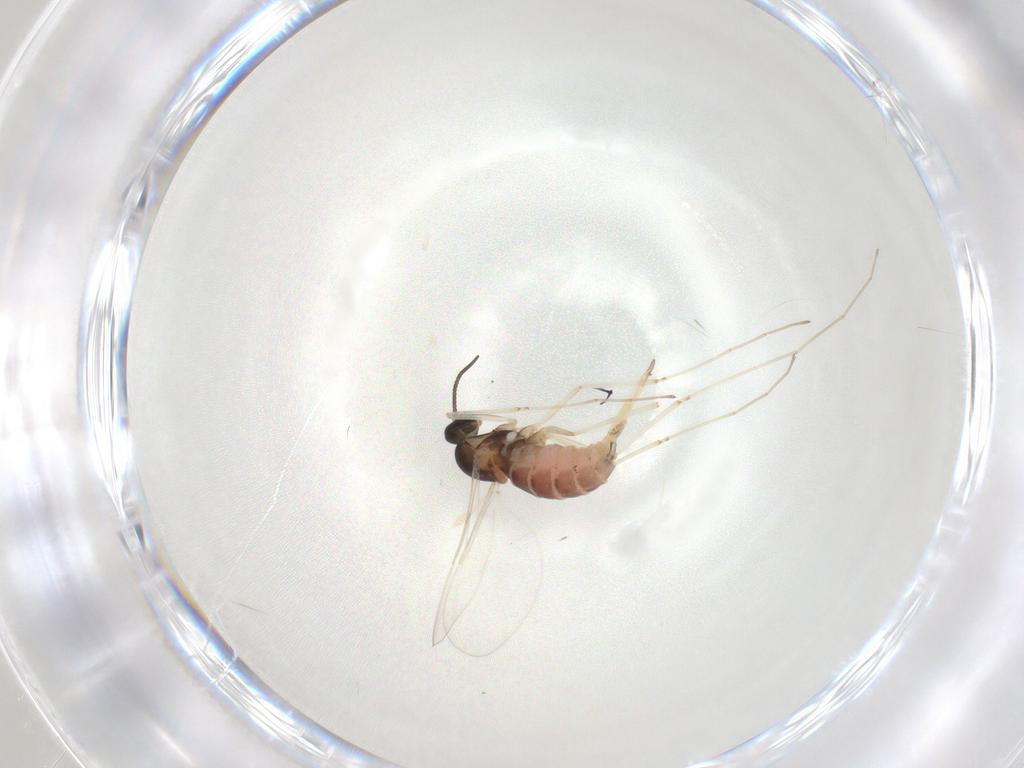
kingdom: Animalia
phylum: Arthropoda
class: Insecta
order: Diptera
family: Cecidomyiidae
